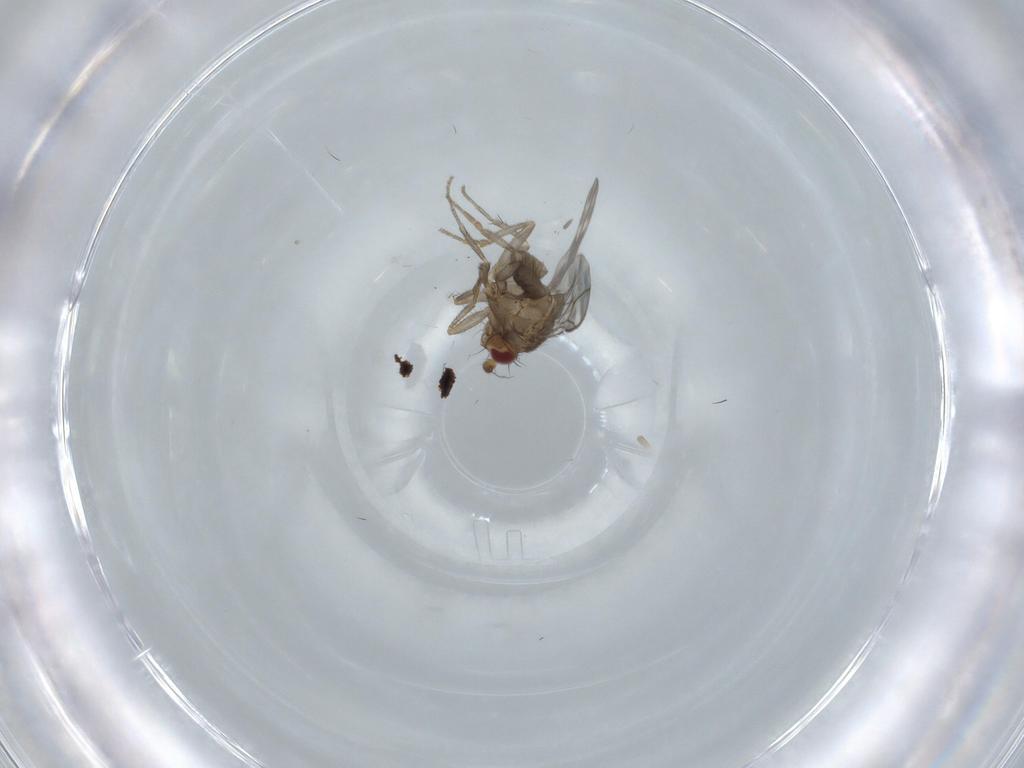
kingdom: Animalia
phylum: Arthropoda
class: Insecta
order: Diptera
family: Sphaeroceridae
